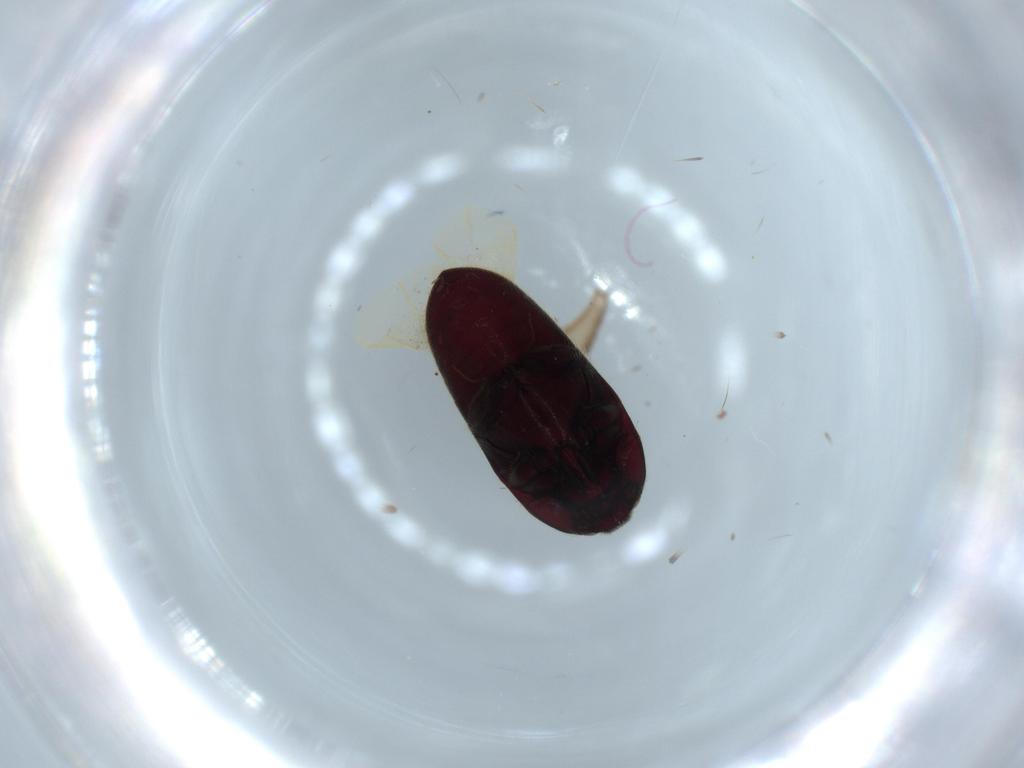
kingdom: Animalia
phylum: Arthropoda
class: Insecta
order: Coleoptera
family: Throscidae
